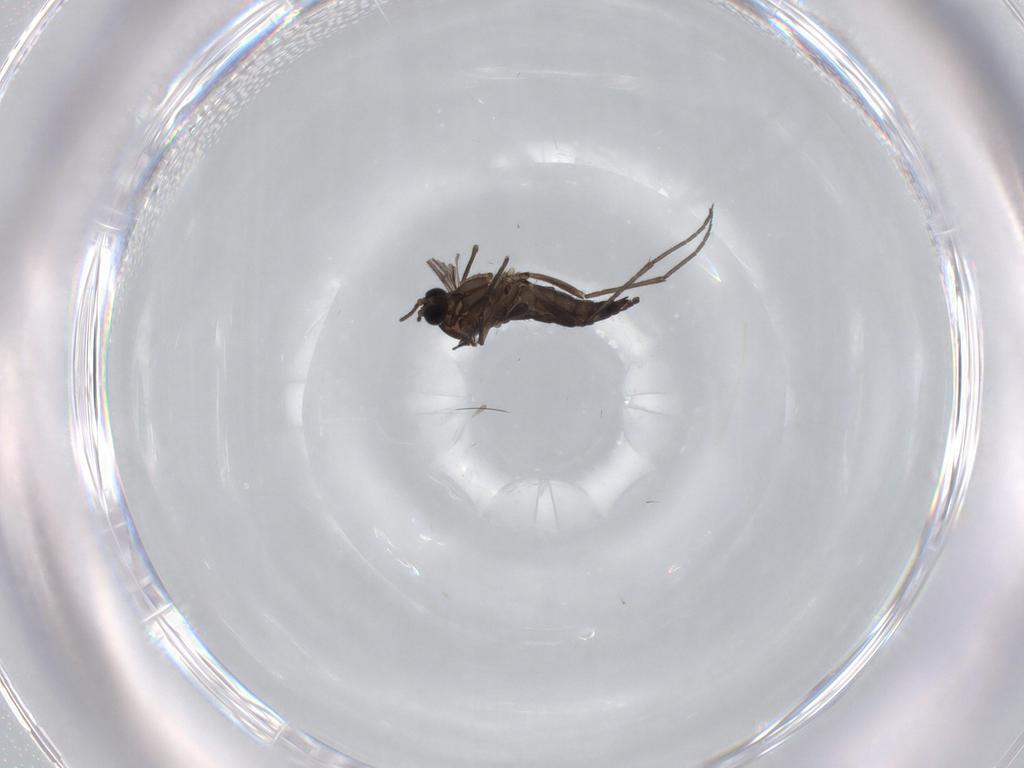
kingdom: Animalia
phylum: Arthropoda
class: Insecta
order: Diptera
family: Sciaridae
